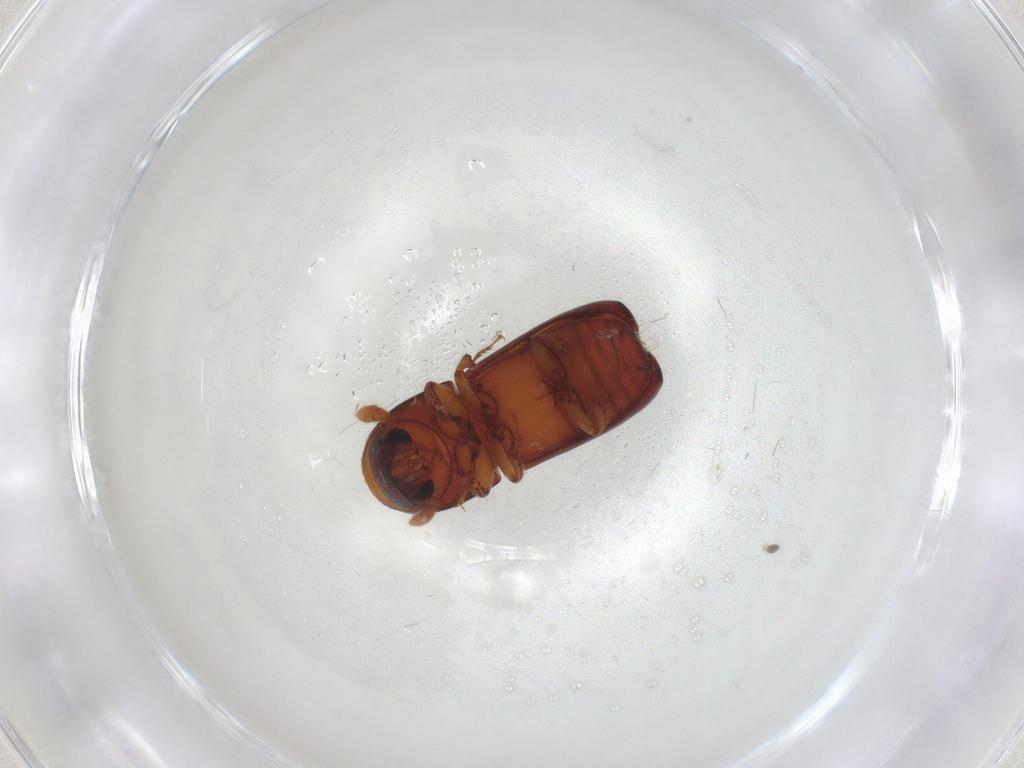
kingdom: Animalia
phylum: Arthropoda
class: Insecta
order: Coleoptera
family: Curculionidae
